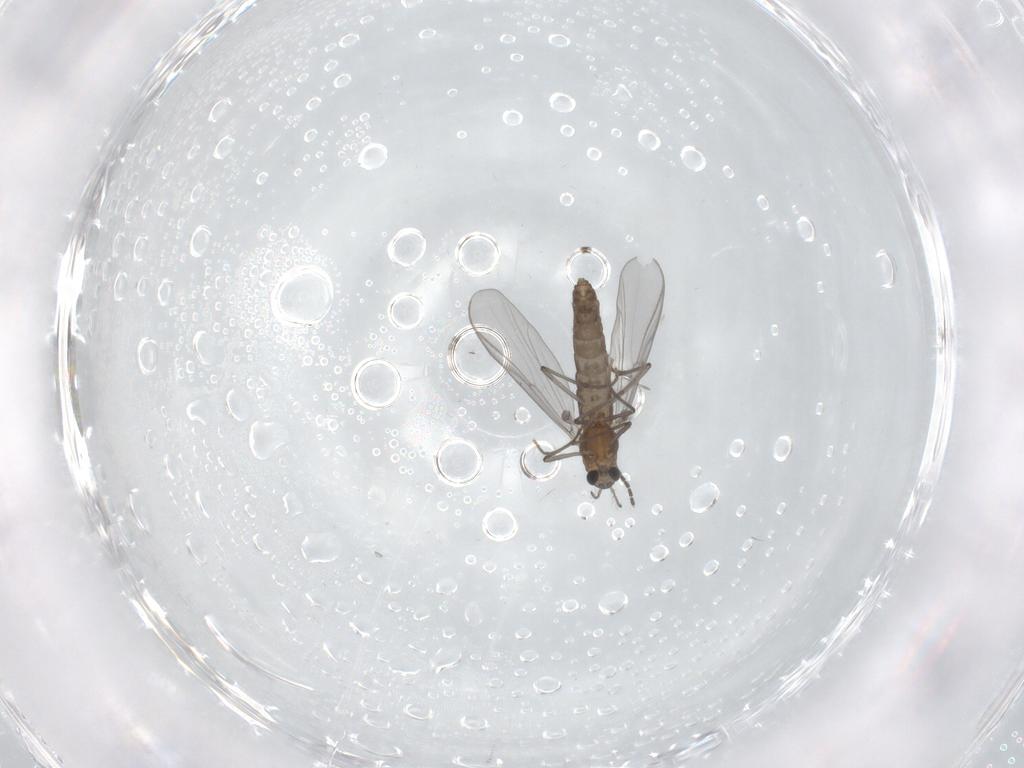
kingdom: Animalia
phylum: Arthropoda
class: Insecta
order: Diptera
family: Chironomidae
